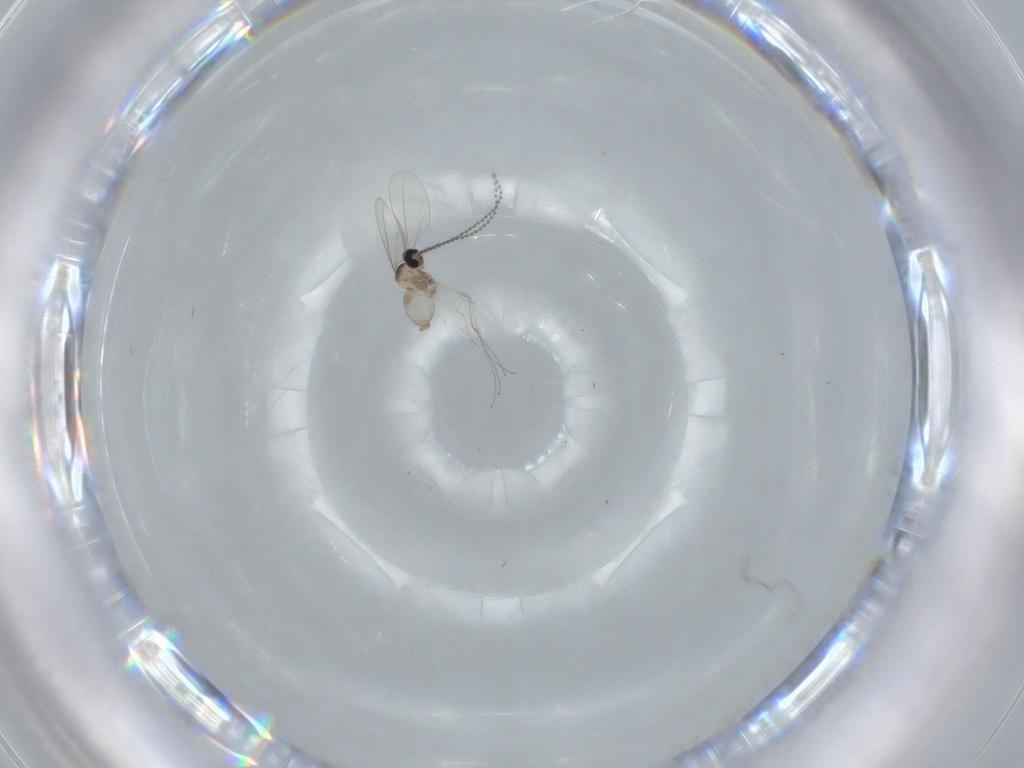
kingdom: Animalia
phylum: Arthropoda
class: Insecta
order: Diptera
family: Cecidomyiidae
